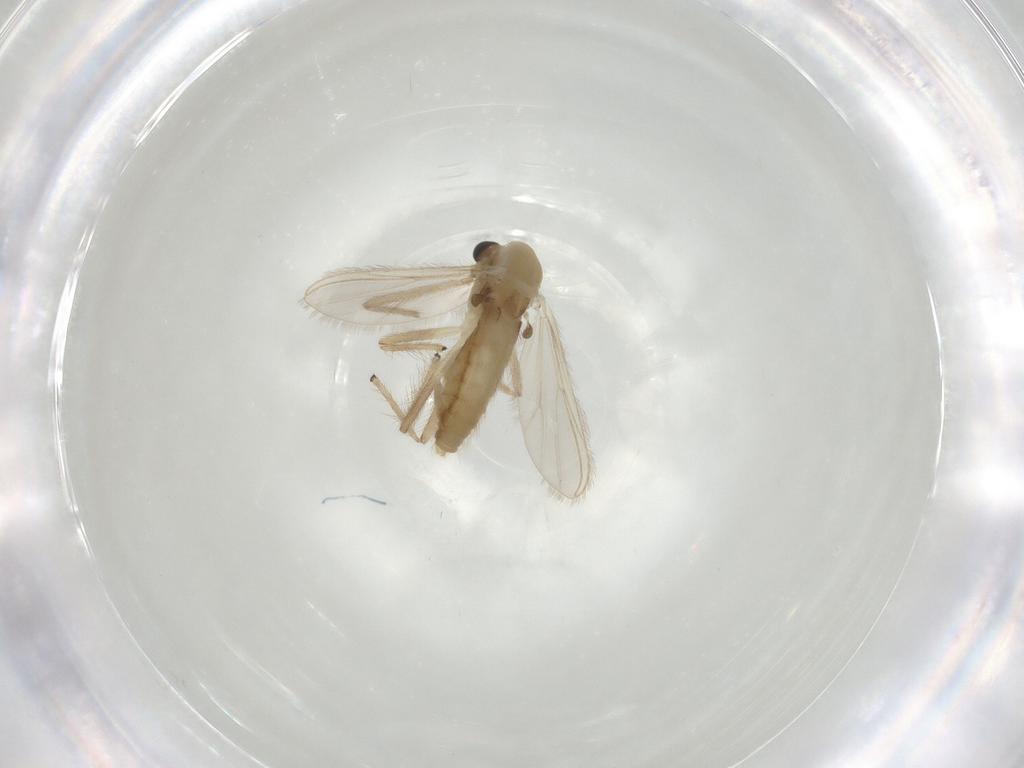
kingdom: Animalia
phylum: Arthropoda
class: Insecta
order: Diptera
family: Chironomidae
